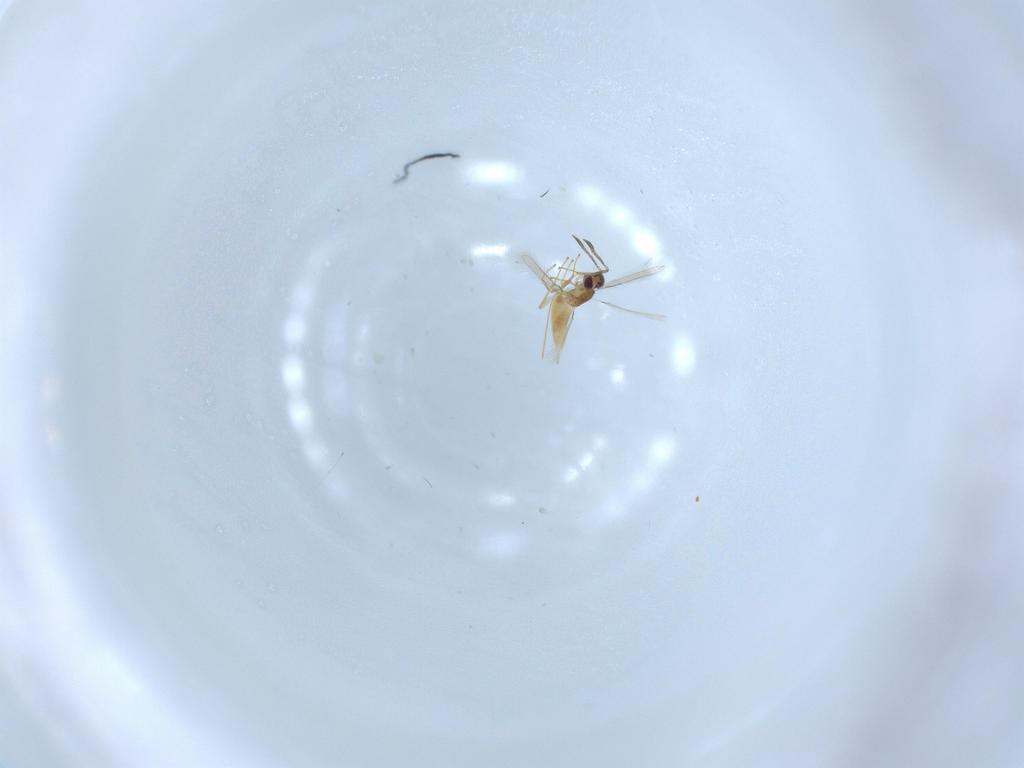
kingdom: Animalia
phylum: Arthropoda
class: Insecta
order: Hymenoptera
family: Mymaridae
